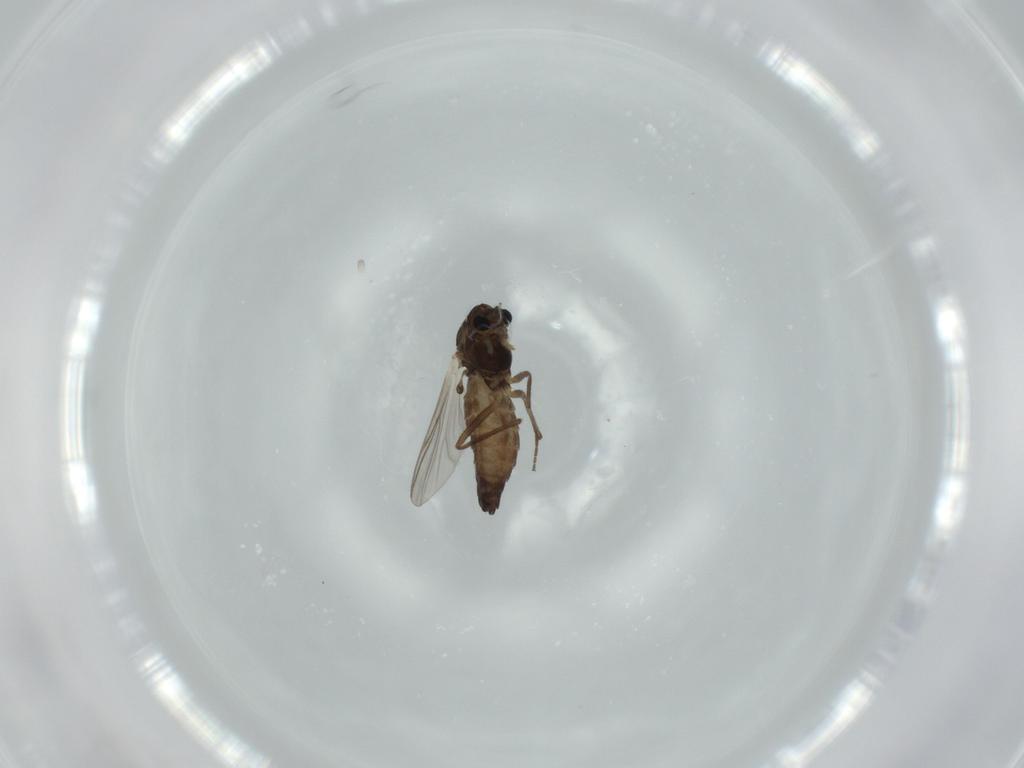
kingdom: Animalia
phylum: Arthropoda
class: Insecta
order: Diptera
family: Chironomidae
